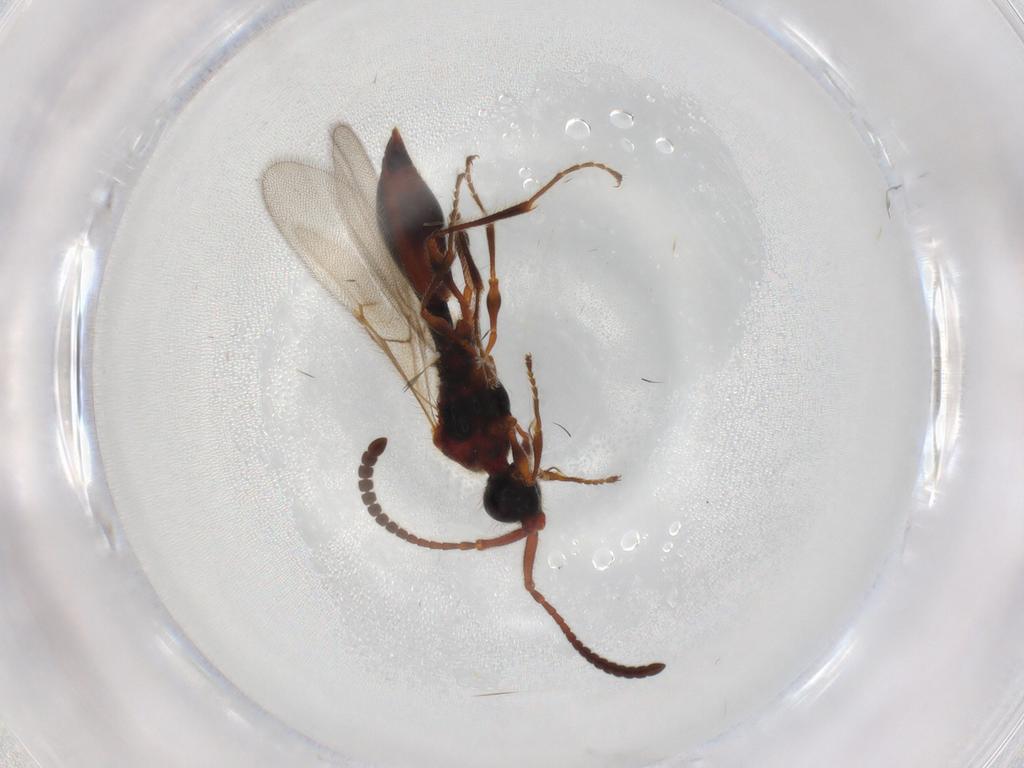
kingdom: Animalia
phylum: Arthropoda
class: Insecta
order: Hymenoptera
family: Diapriidae
